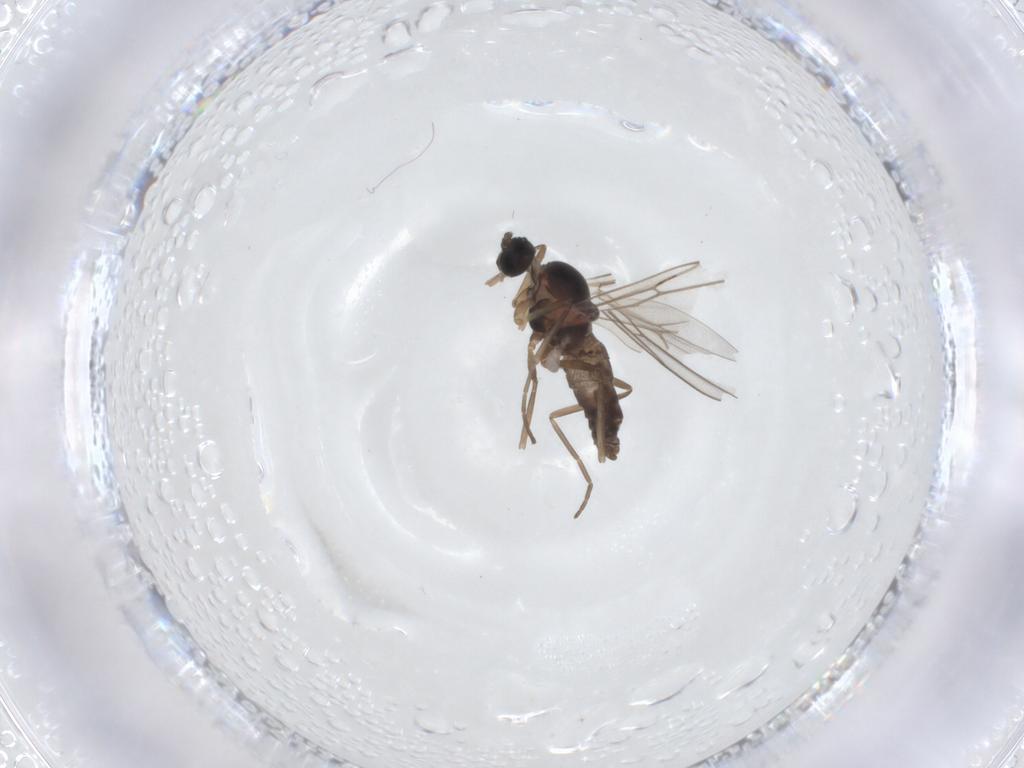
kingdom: Animalia
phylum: Arthropoda
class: Insecta
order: Diptera
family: Cecidomyiidae
